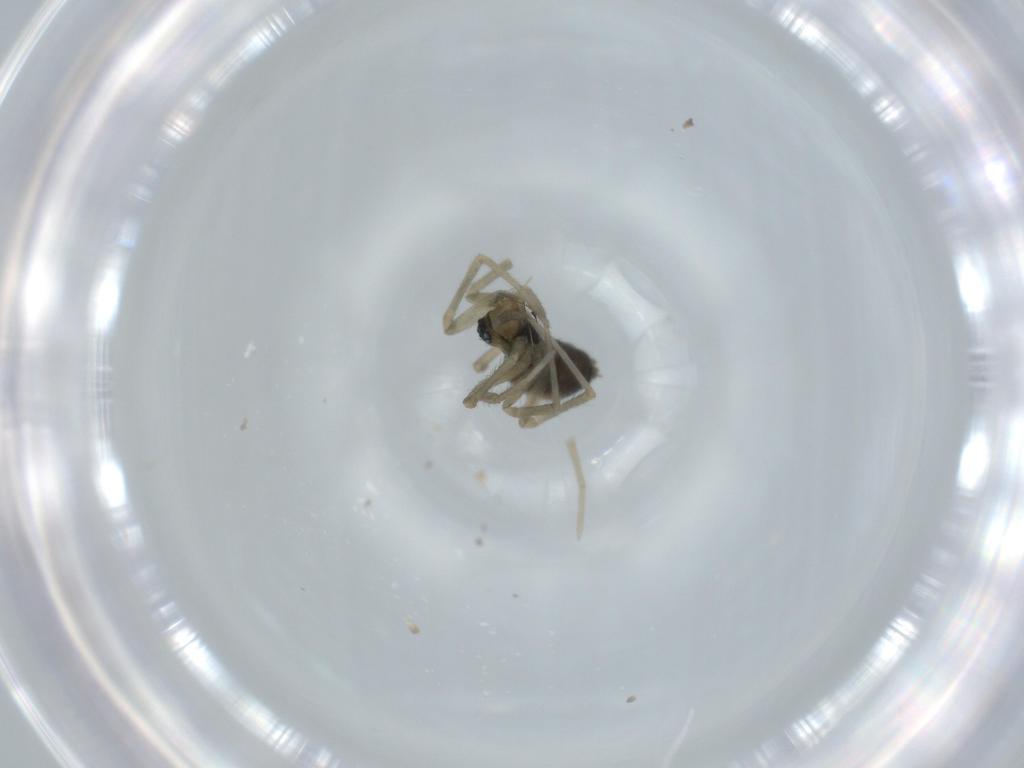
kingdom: Animalia
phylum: Arthropoda
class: Arachnida
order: Araneae
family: Linyphiidae
